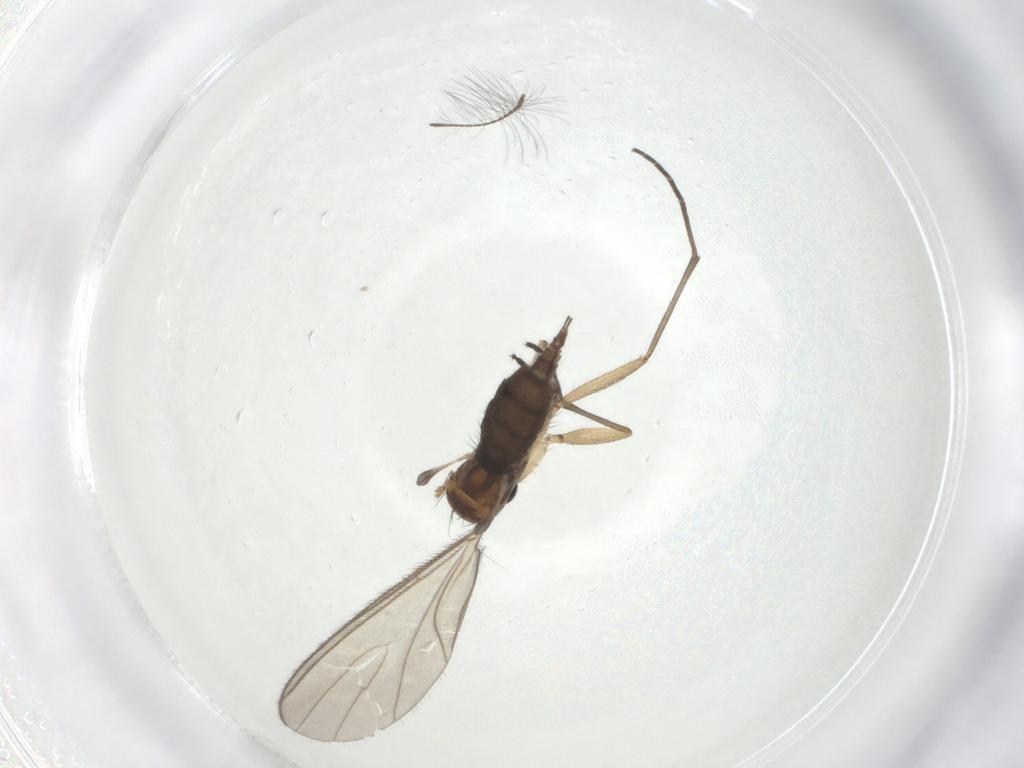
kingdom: Animalia
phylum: Arthropoda
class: Insecta
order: Diptera
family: Sciaridae
